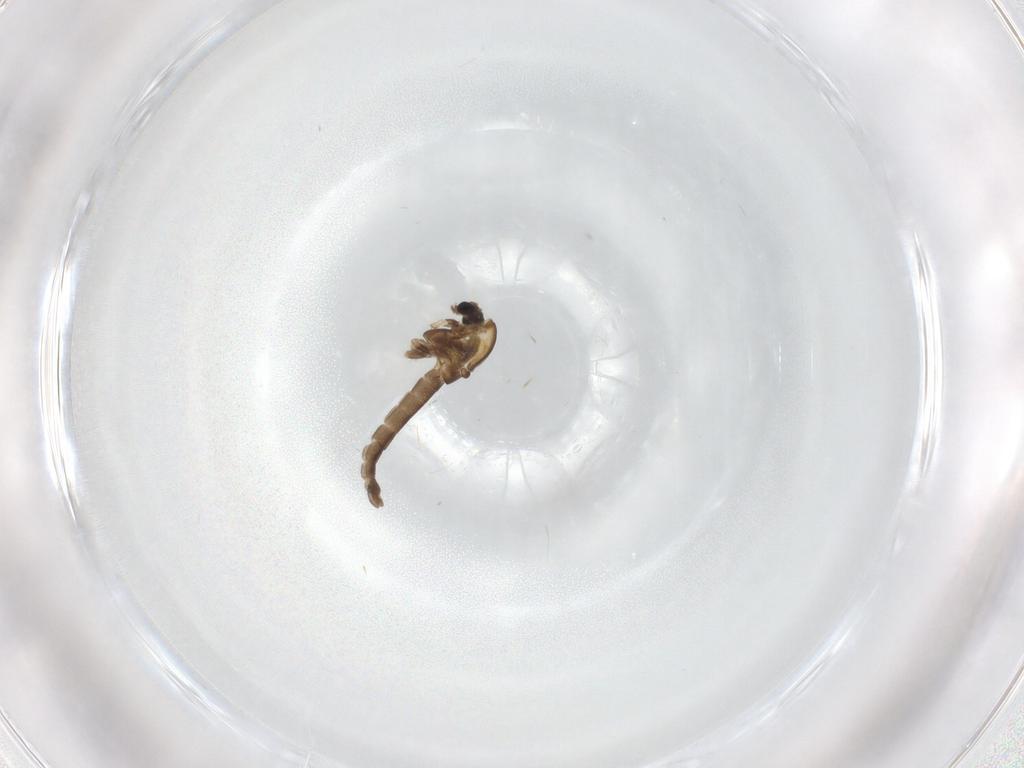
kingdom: Animalia
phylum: Arthropoda
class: Insecta
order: Diptera
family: Chironomidae
